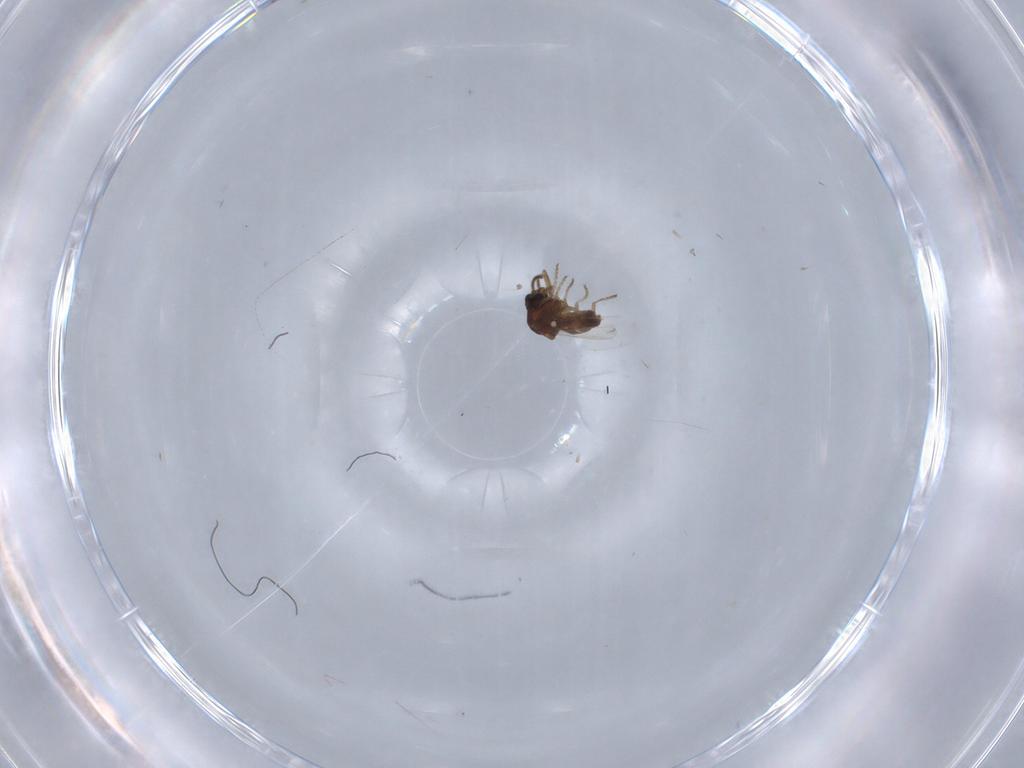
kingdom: Animalia
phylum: Arthropoda
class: Insecta
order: Diptera
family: Ceratopogonidae
